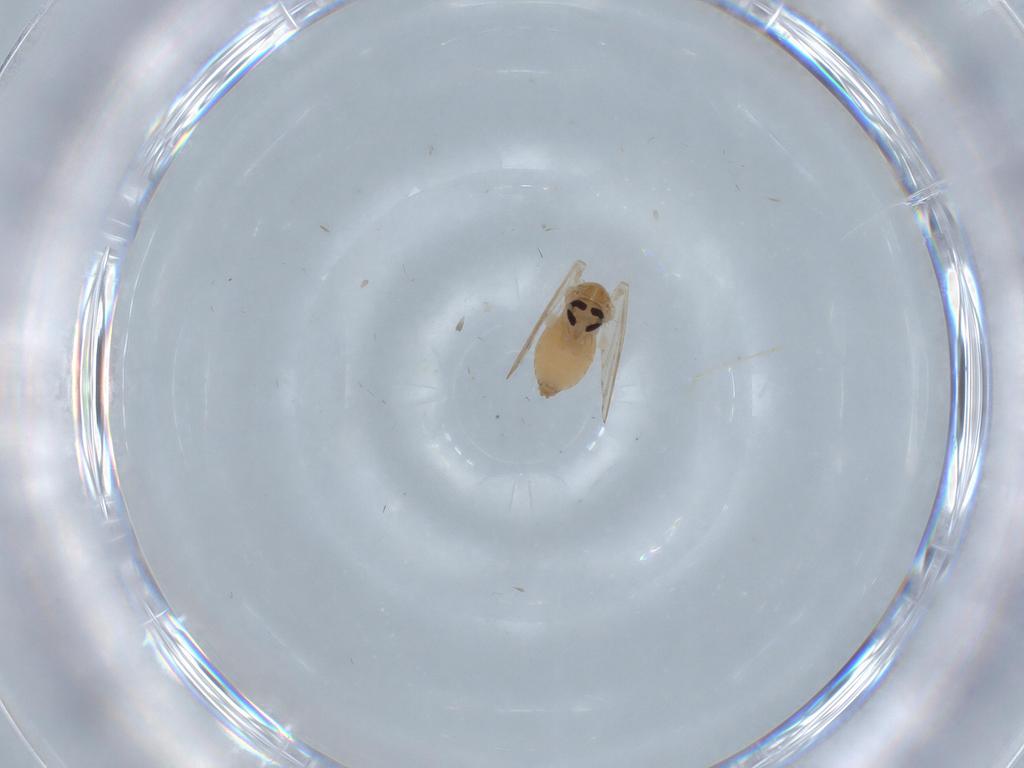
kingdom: Animalia
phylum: Arthropoda
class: Insecta
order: Diptera
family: Psychodidae
